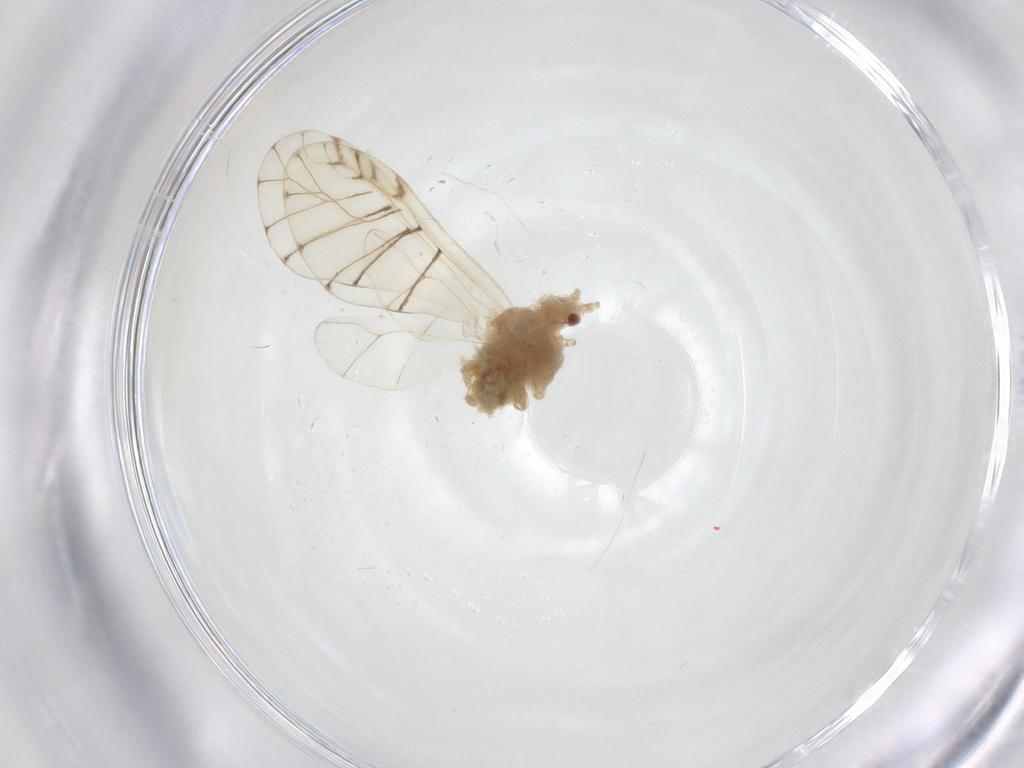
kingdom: Animalia
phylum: Arthropoda
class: Insecta
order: Hemiptera
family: Aphididae
